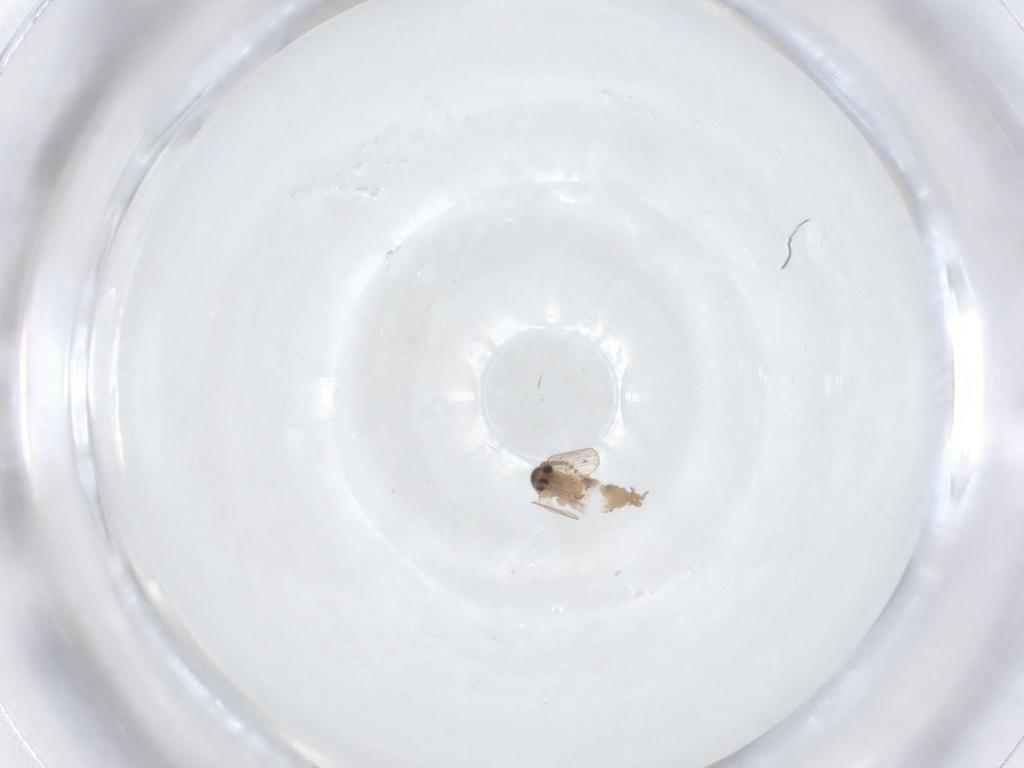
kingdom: Animalia
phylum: Arthropoda
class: Insecta
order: Diptera
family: Psychodidae
